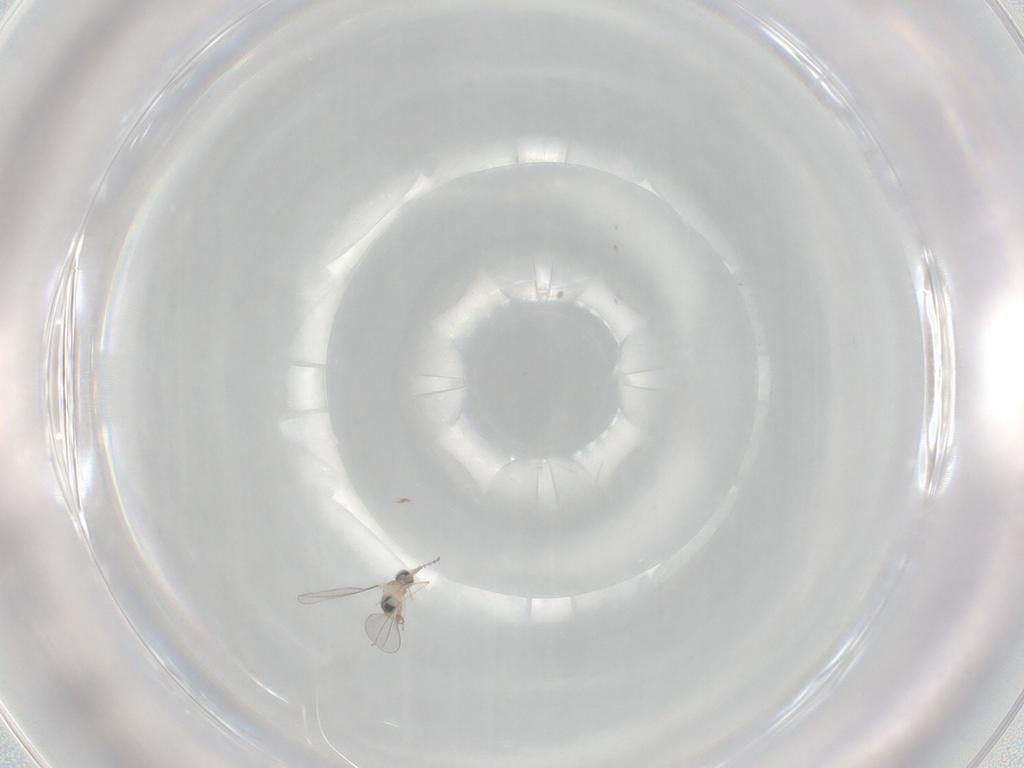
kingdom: Animalia
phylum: Arthropoda
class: Insecta
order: Diptera
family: Cecidomyiidae
